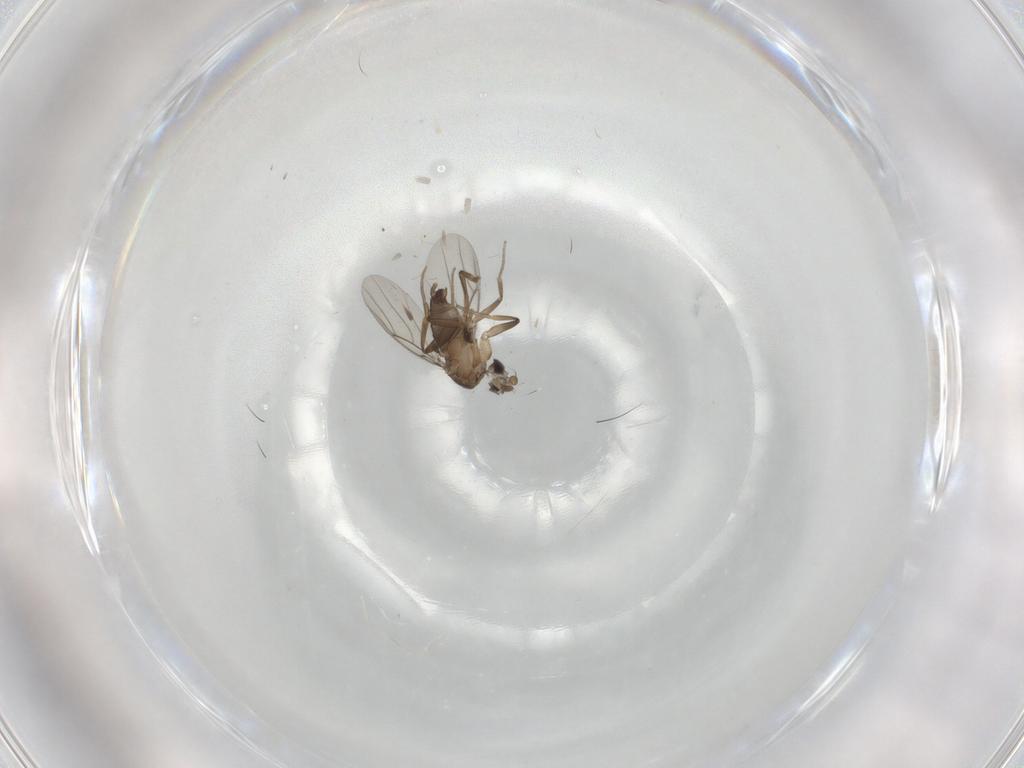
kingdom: Animalia
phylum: Arthropoda
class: Insecta
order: Diptera
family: Phoridae
